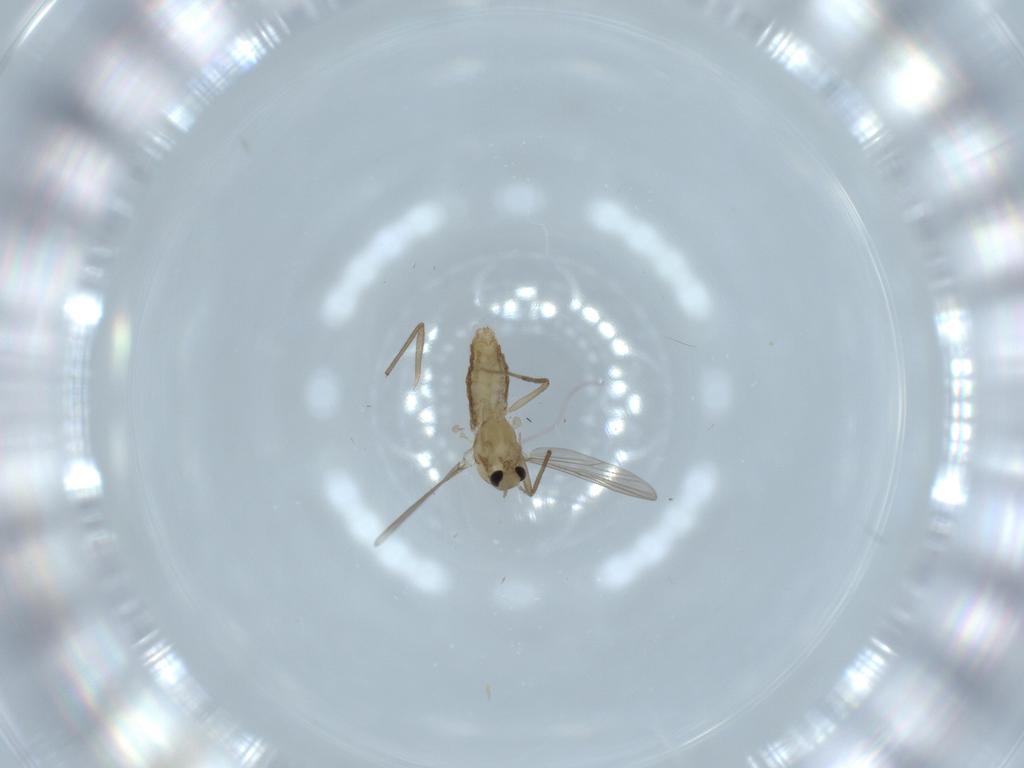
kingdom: Animalia
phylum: Arthropoda
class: Insecta
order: Diptera
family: Chironomidae
